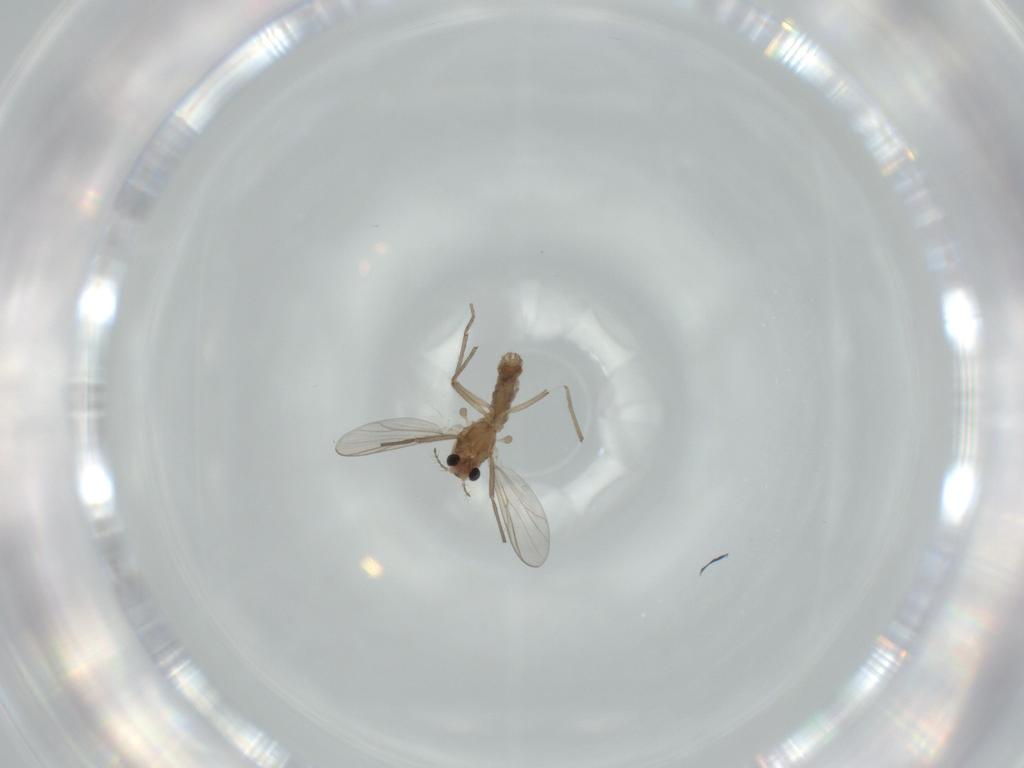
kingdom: Animalia
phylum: Arthropoda
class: Insecta
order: Diptera
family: Chironomidae
